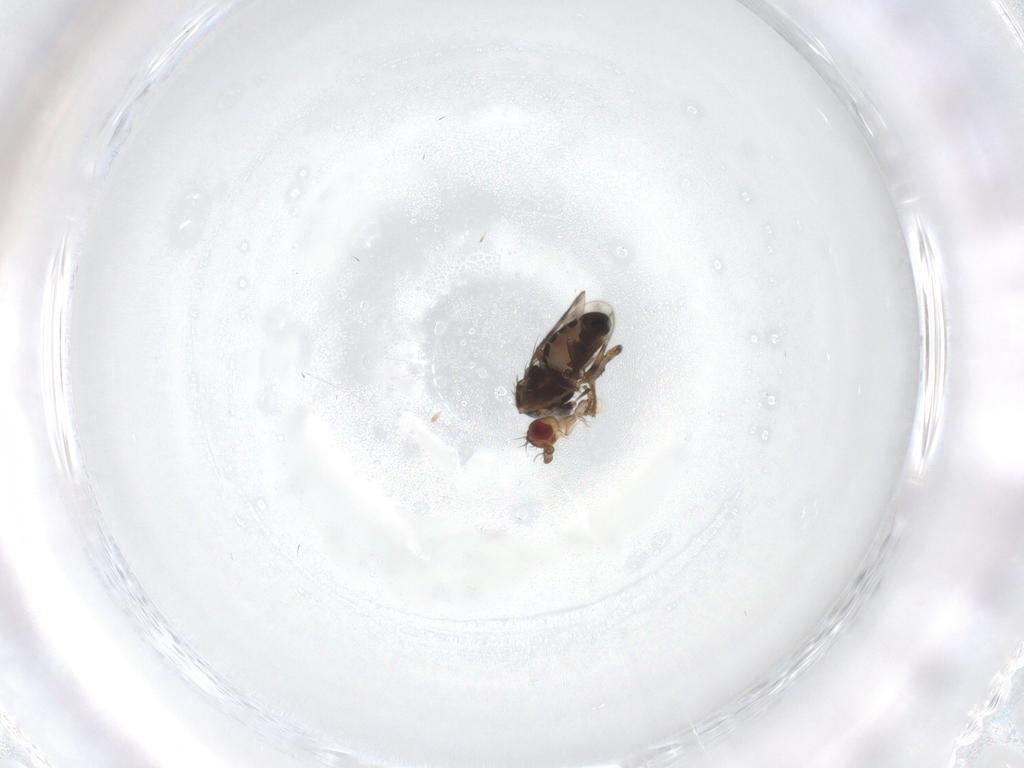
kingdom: Animalia
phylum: Arthropoda
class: Insecta
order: Diptera
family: Sphaeroceridae
